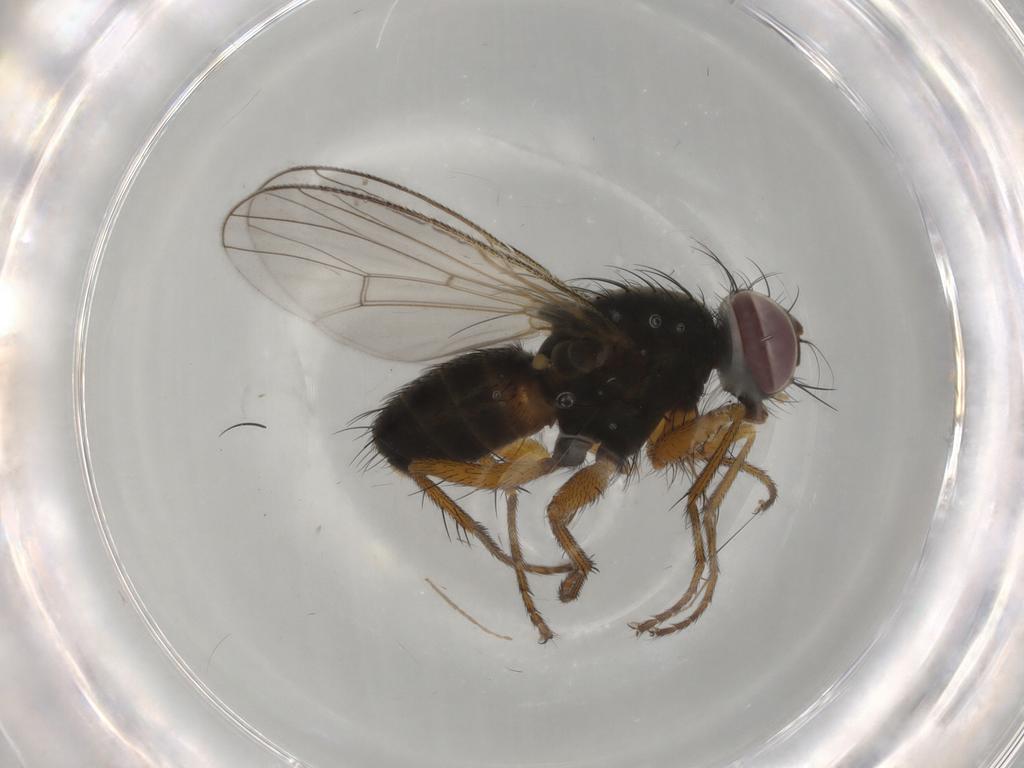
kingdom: Animalia
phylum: Arthropoda
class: Insecta
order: Diptera
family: Chironomidae
